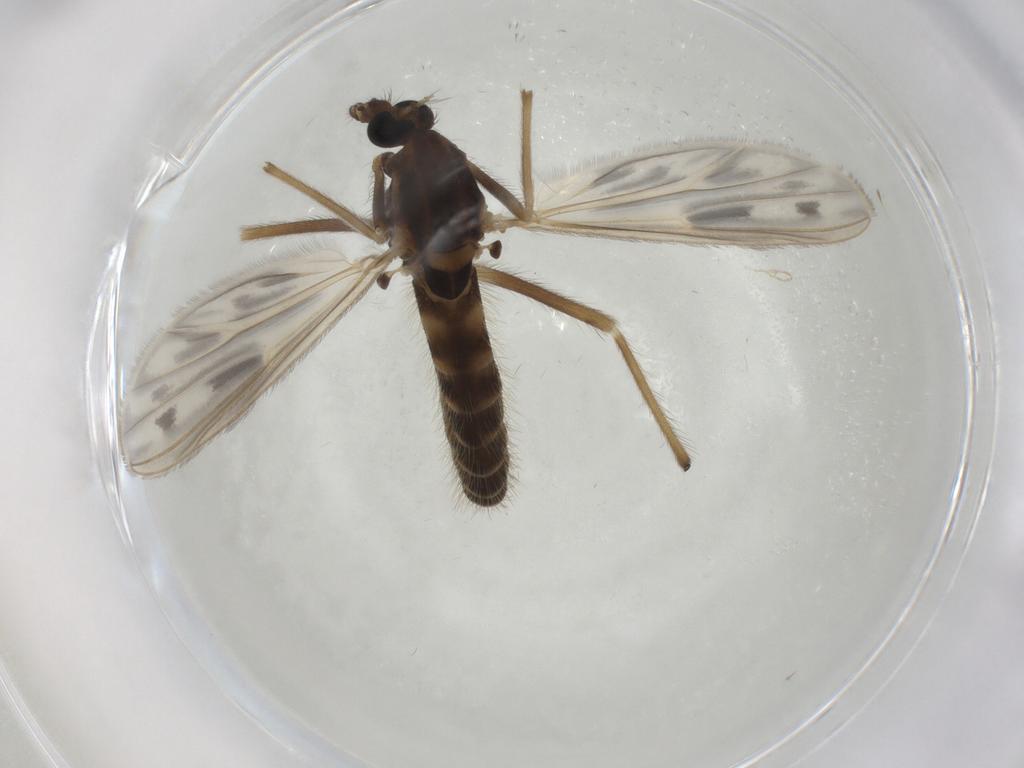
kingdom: Animalia
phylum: Arthropoda
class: Insecta
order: Diptera
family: Chironomidae
